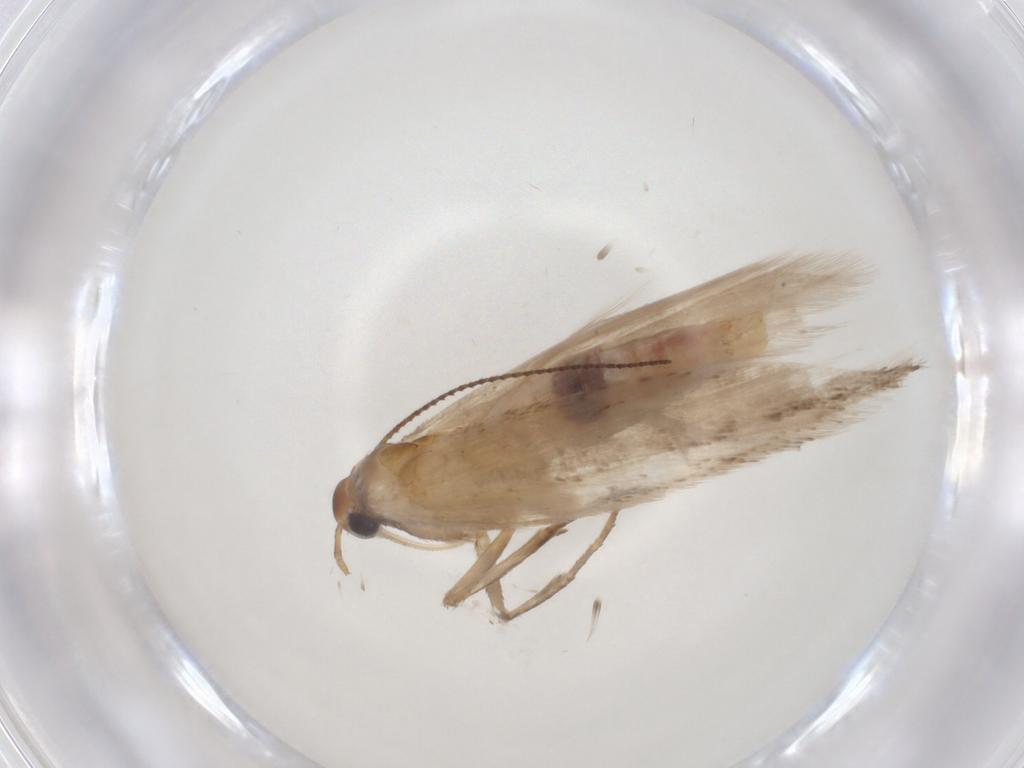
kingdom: Animalia
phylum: Arthropoda
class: Insecta
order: Lepidoptera
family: Gelechiidae
